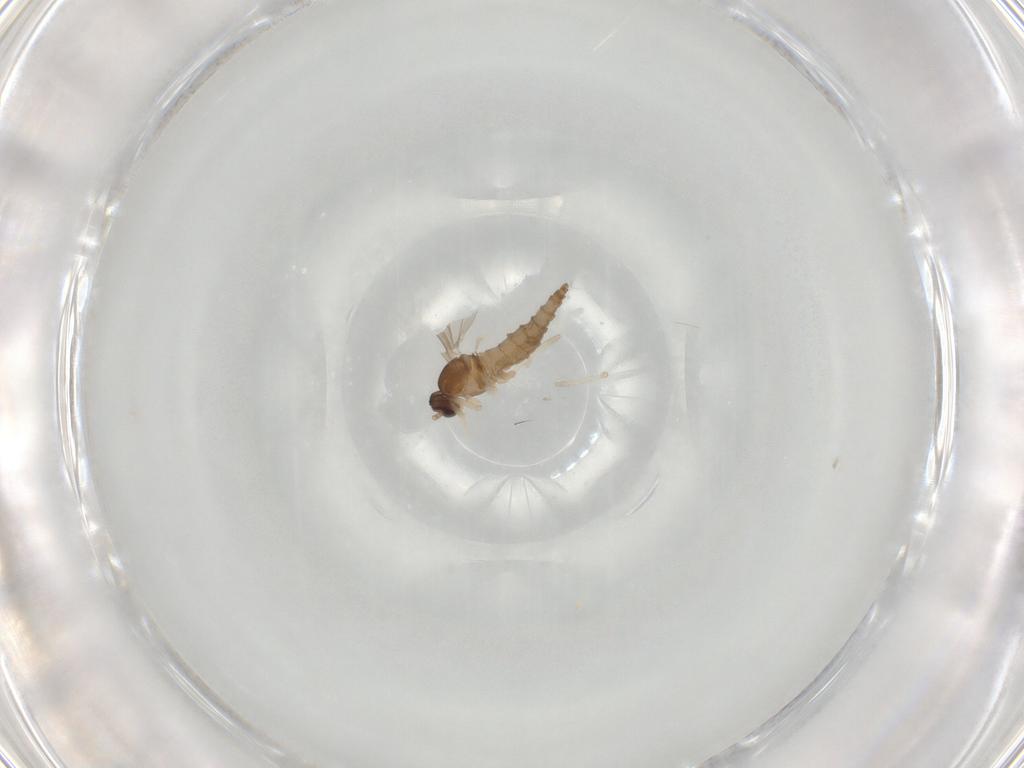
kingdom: Animalia
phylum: Arthropoda
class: Insecta
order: Diptera
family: Cecidomyiidae
